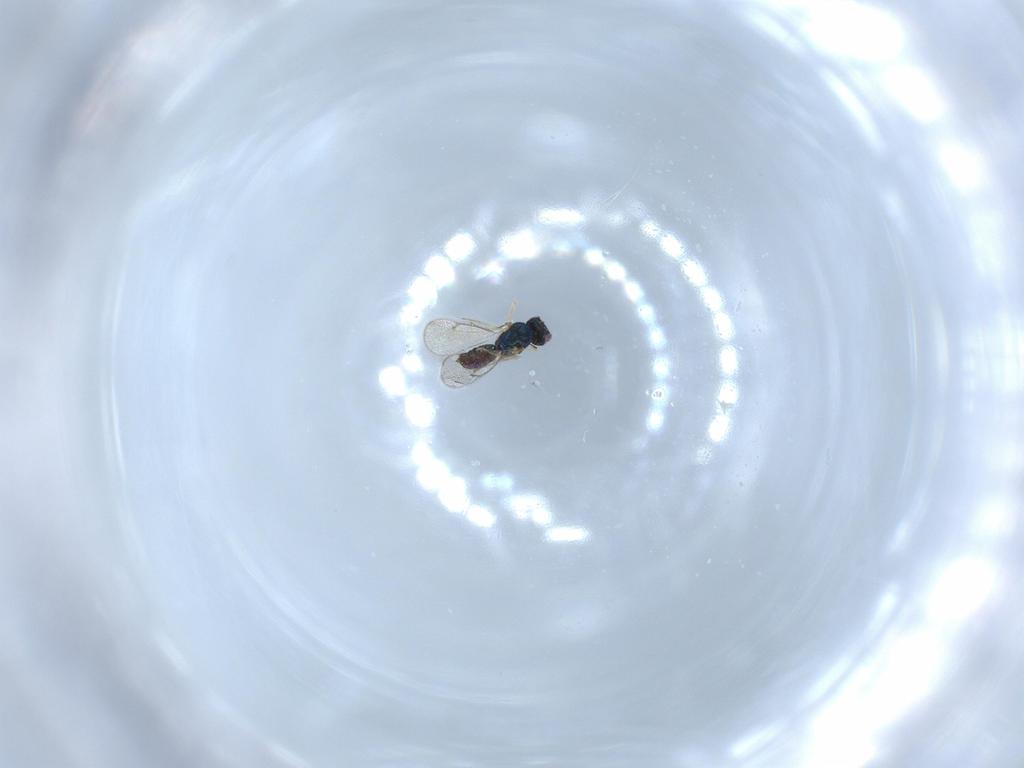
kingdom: Animalia
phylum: Arthropoda
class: Insecta
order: Hymenoptera
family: Eulophidae
